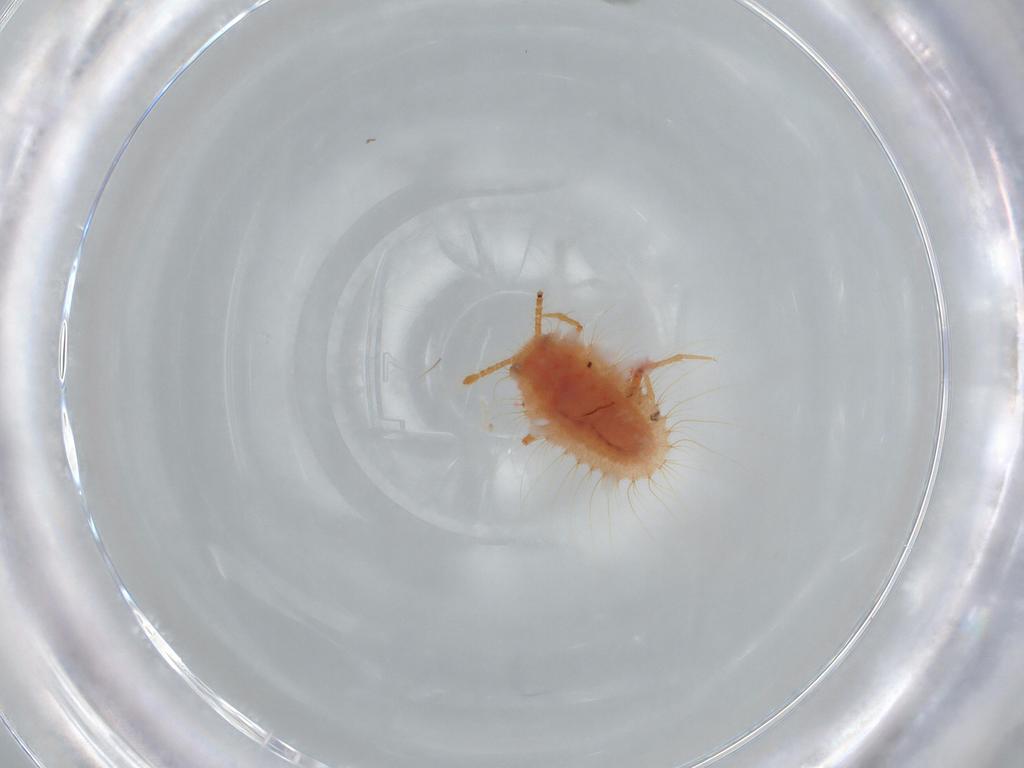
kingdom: Animalia
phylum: Arthropoda
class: Insecta
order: Hemiptera
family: Coccoidea_incertae_sedis
